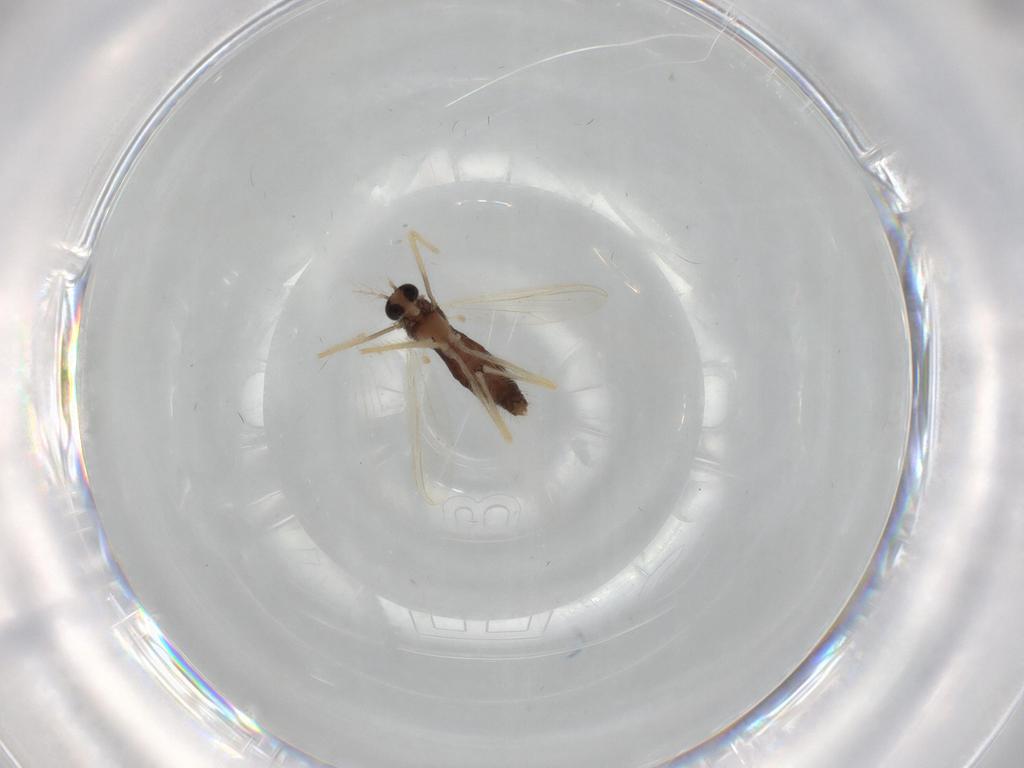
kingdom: Animalia
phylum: Arthropoda
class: Insecta
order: Diptera
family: Chironomidae
